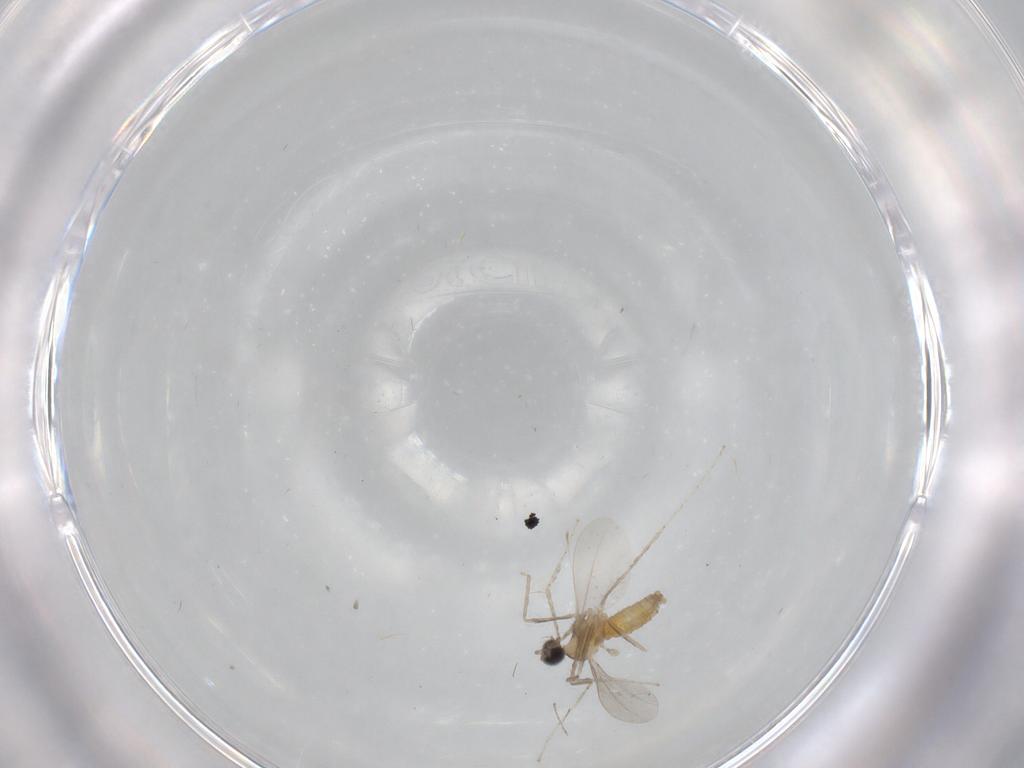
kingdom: Animalia
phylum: Arthropoda
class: Insecta
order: Diptera
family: Cecidomyiidae
